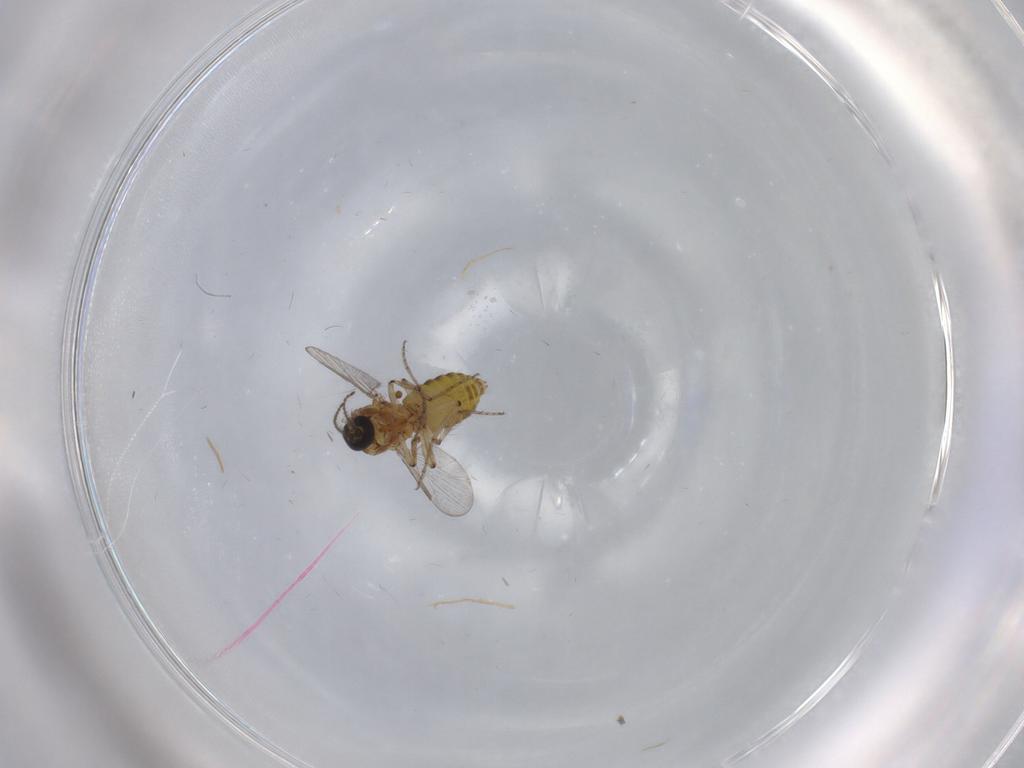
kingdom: Animalia
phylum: Arthropoda
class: Insecta
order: Diptera
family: Ceratopogonidae
